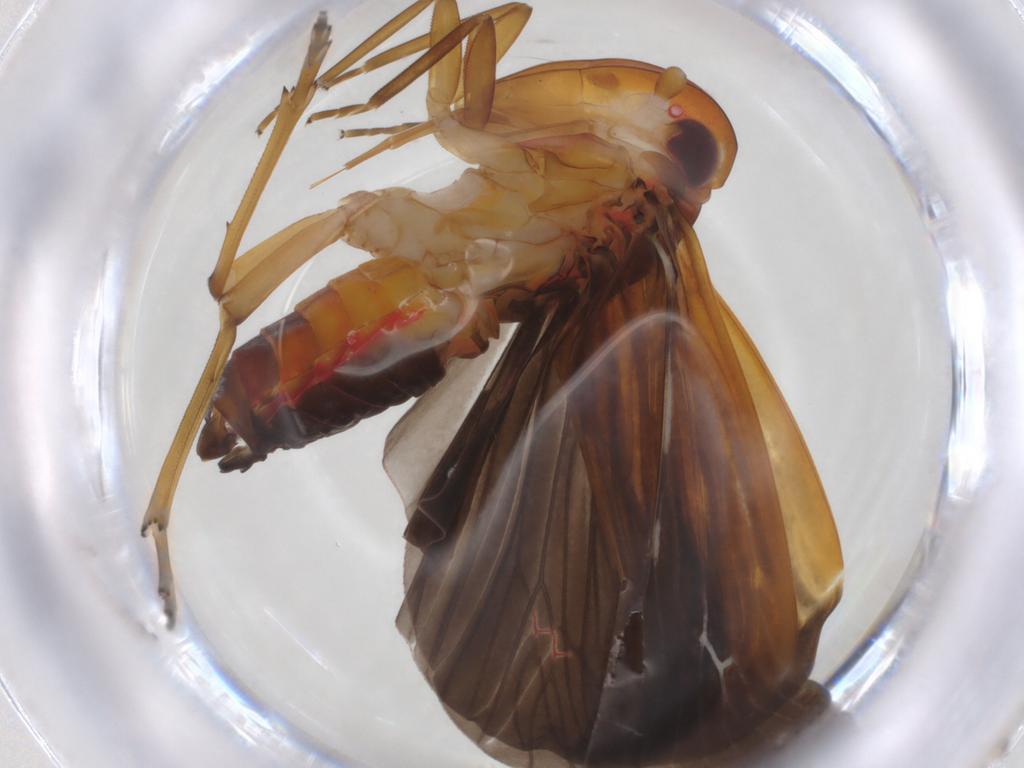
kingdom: Animalia
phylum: Arthropoda
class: Insecta
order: Hemiptera
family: Achilidae
